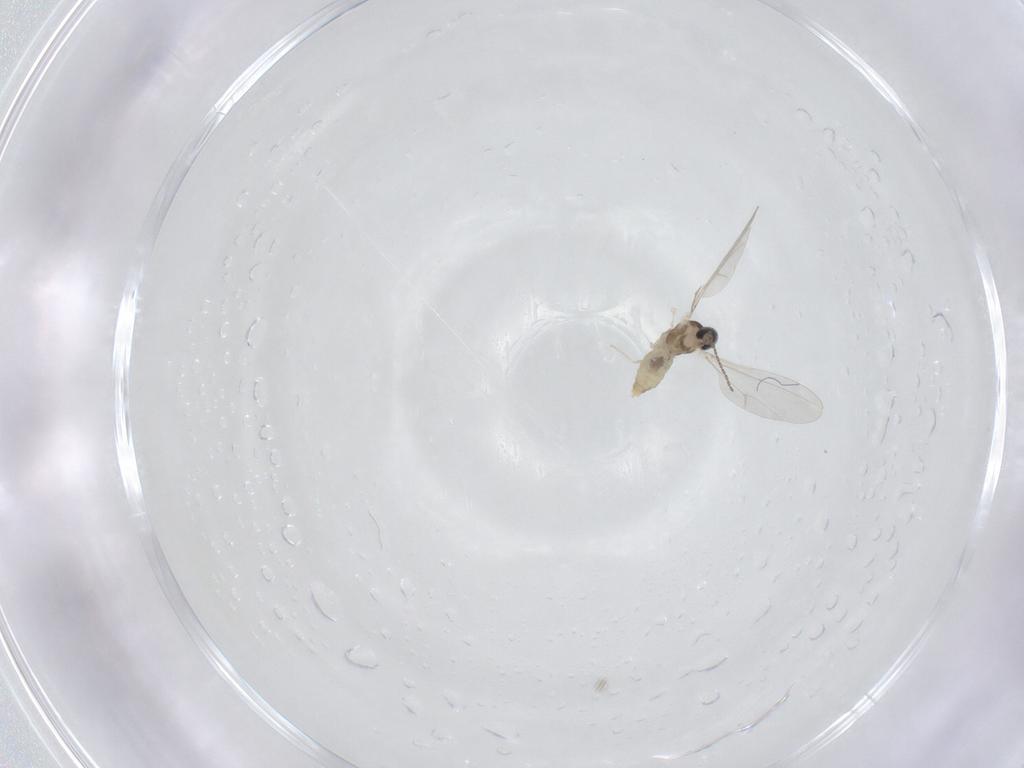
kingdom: Animalia
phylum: Arthropoda
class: Insecta
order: Diptera
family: Cecidomyiidae
